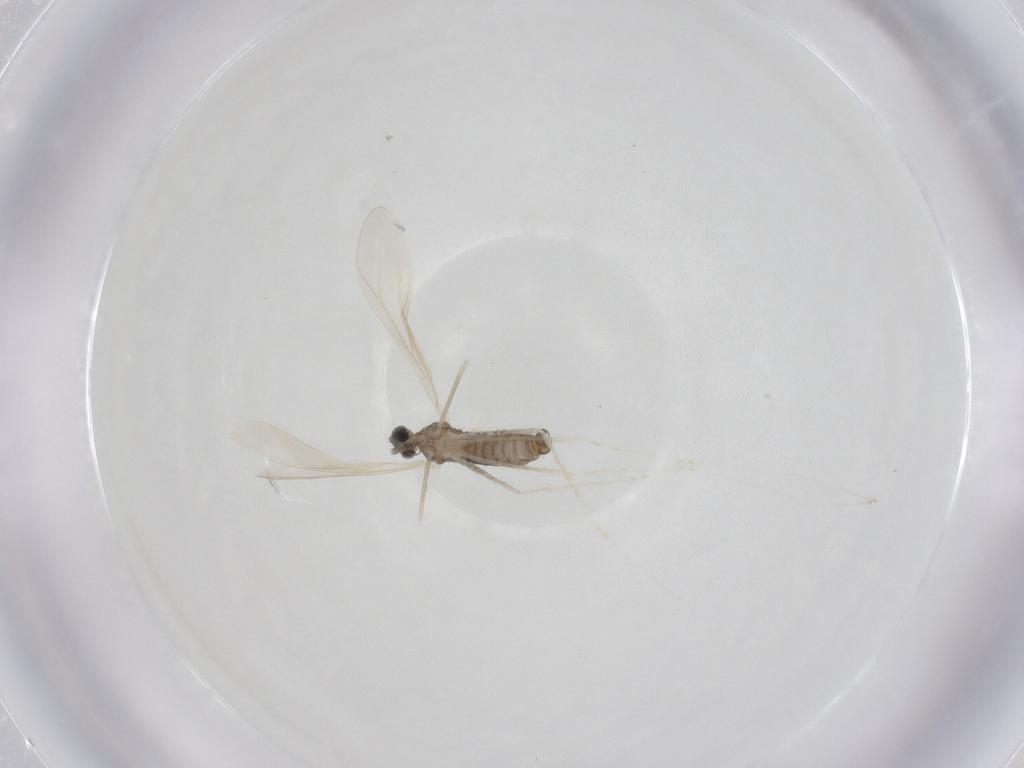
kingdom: Animalia
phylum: Arthropoda
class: Insecta
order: Diptera
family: Cecidomyiidae
